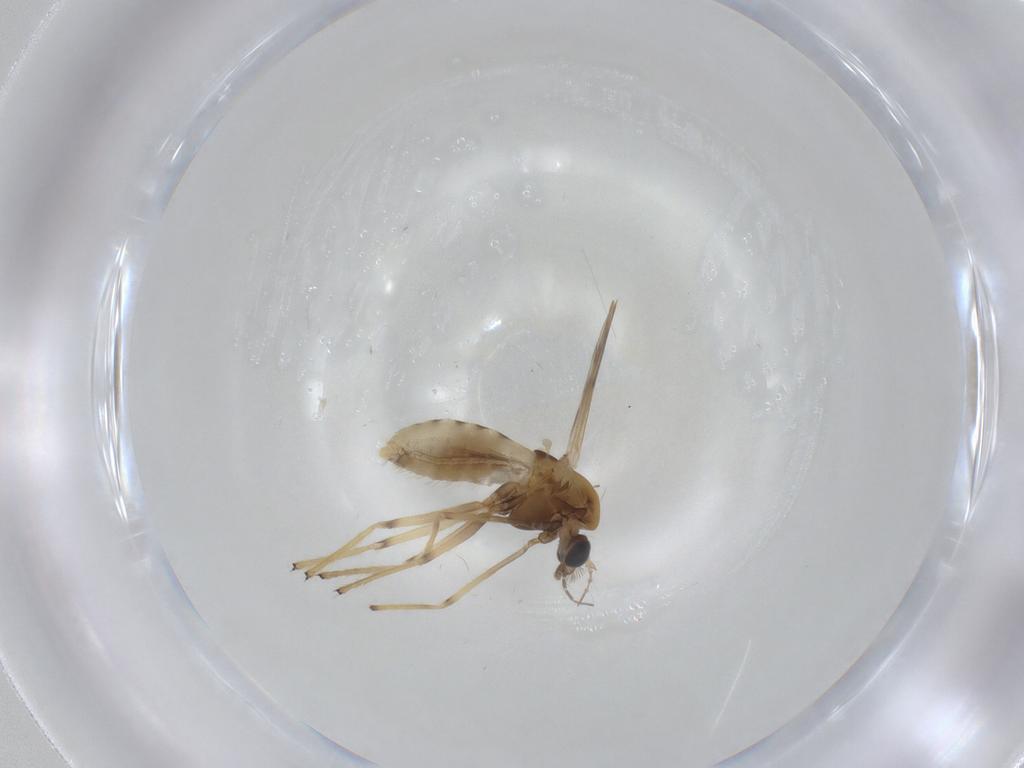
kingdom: Animalia
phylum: Arthropoda
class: Insecta
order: Diptera
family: Chironomidae
